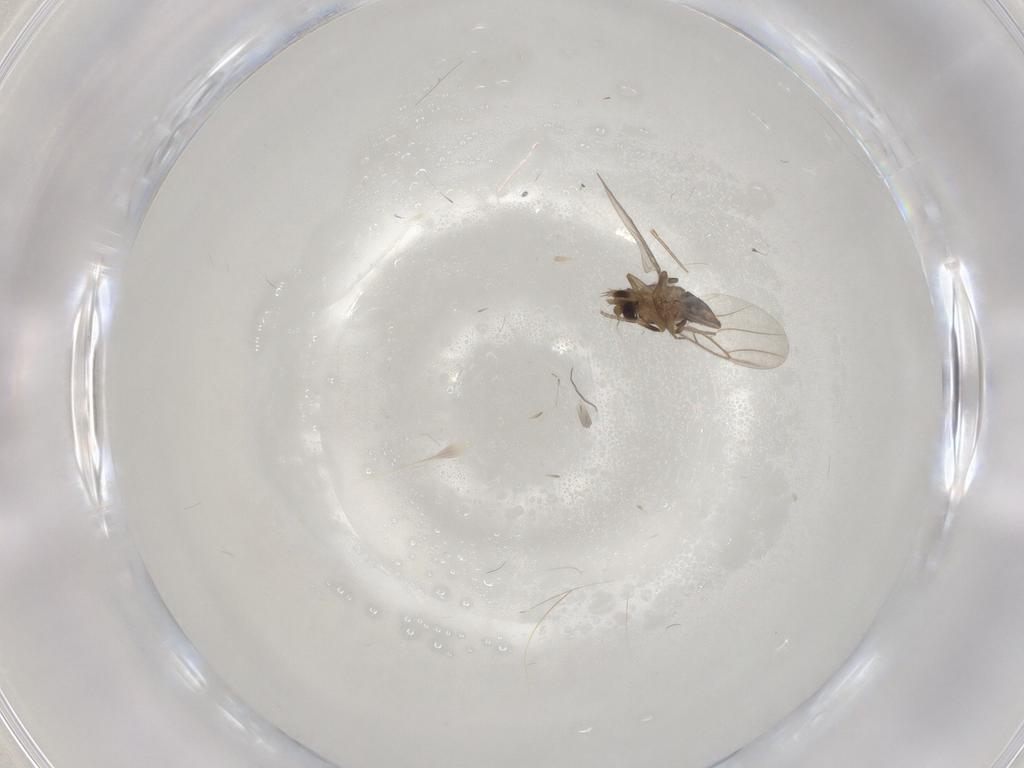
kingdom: Animalia
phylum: Arthropoda
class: Insecta
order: Diptera
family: Phoridae
